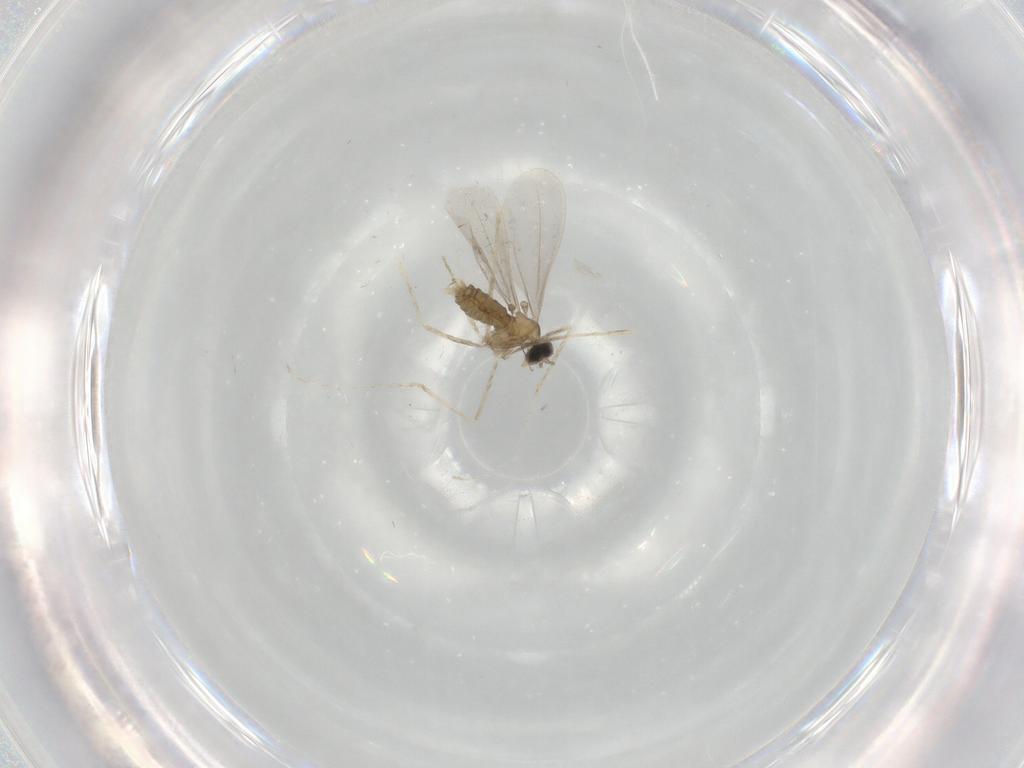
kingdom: Animalia
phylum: Arthropoda
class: Insecta
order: Diptera
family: Cecidomyiidae
